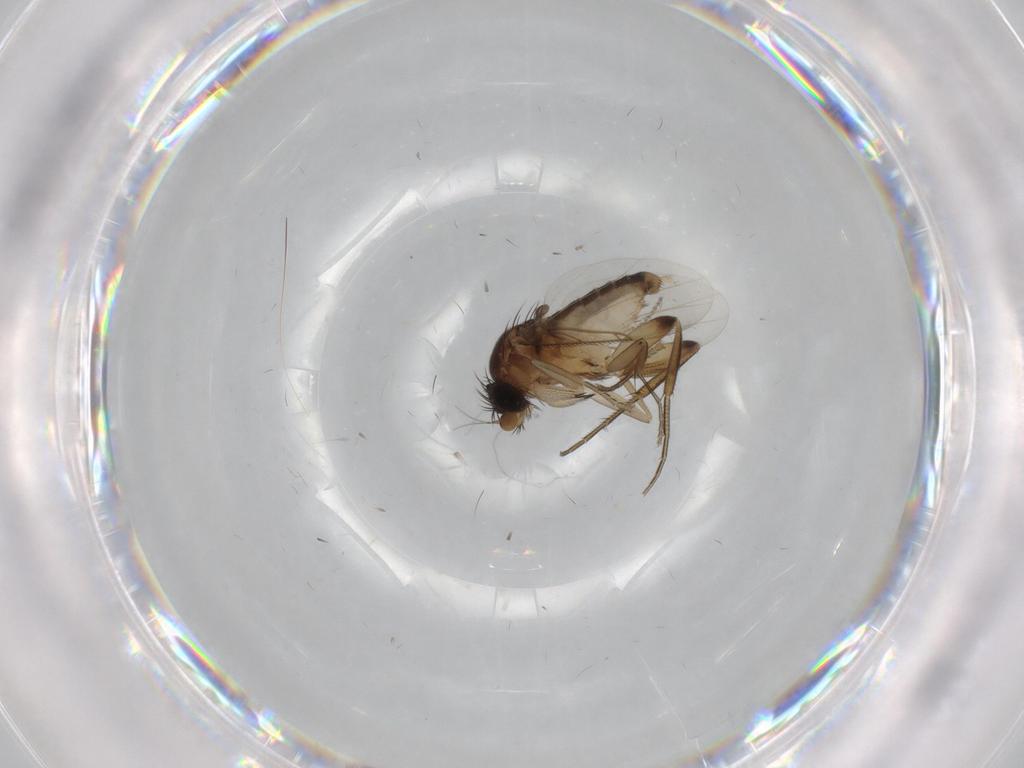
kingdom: Animalia
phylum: Arthropoda
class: Insecta
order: Diptera
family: Phoridae
